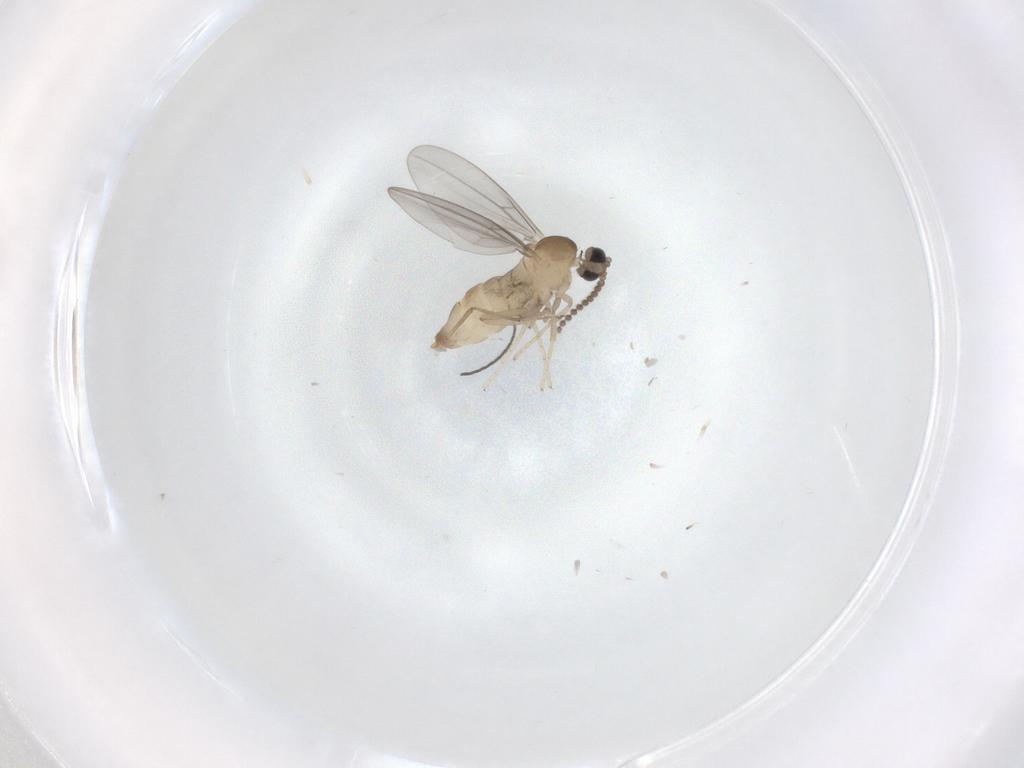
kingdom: Animalia
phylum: Arthropoda
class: Insecta
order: Diptera
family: Cecidomyiidae
